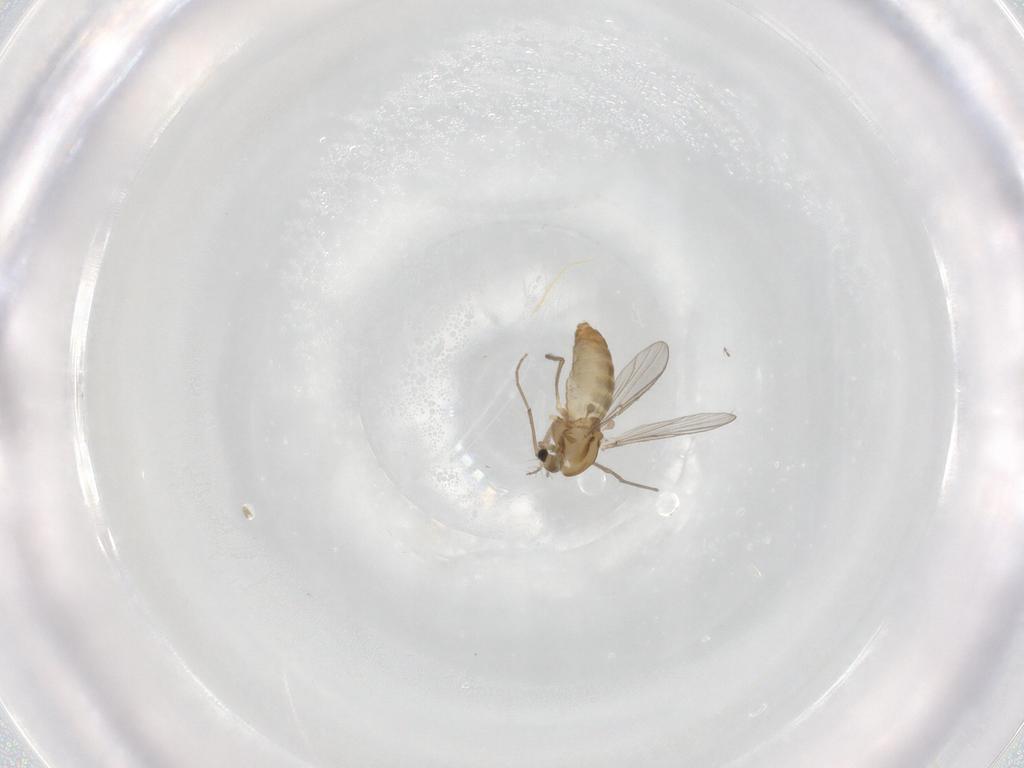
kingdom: Animalia
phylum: Arthropoda
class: Insecta
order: Diptera
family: Chironomidae
